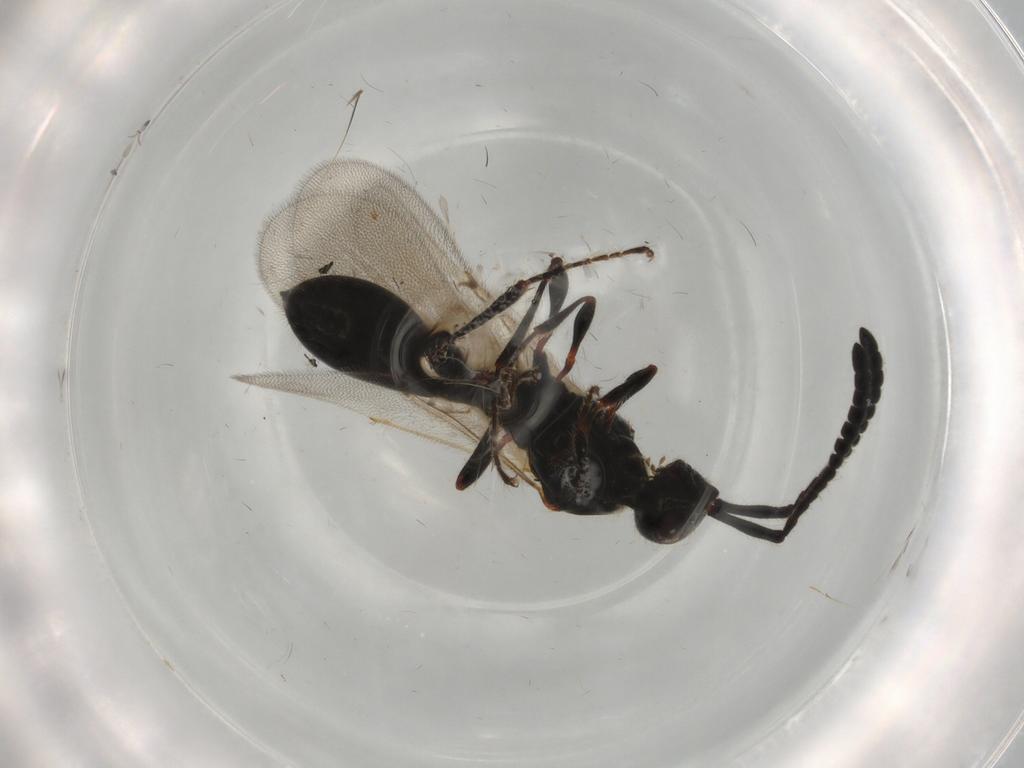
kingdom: Animalia
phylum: Arthropoda
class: Insecta
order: Hymenoptera
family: Diapriidae
